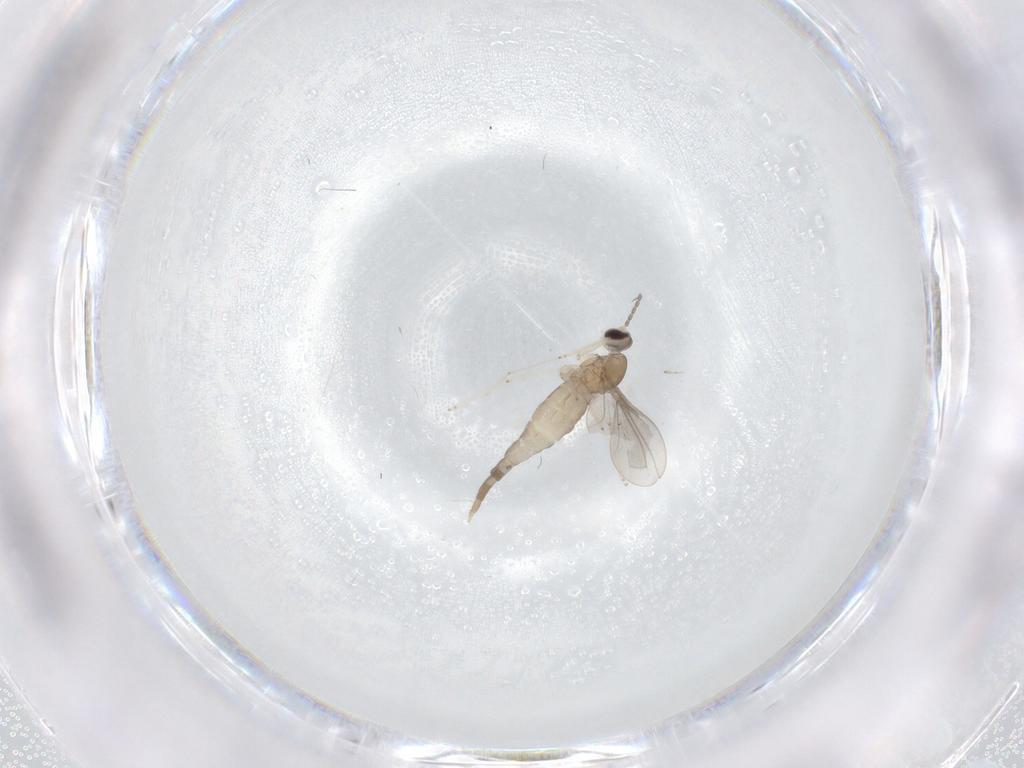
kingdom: Animalia
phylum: Arthropoda
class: Insecta
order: Diptera
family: Cecidomyiidae
